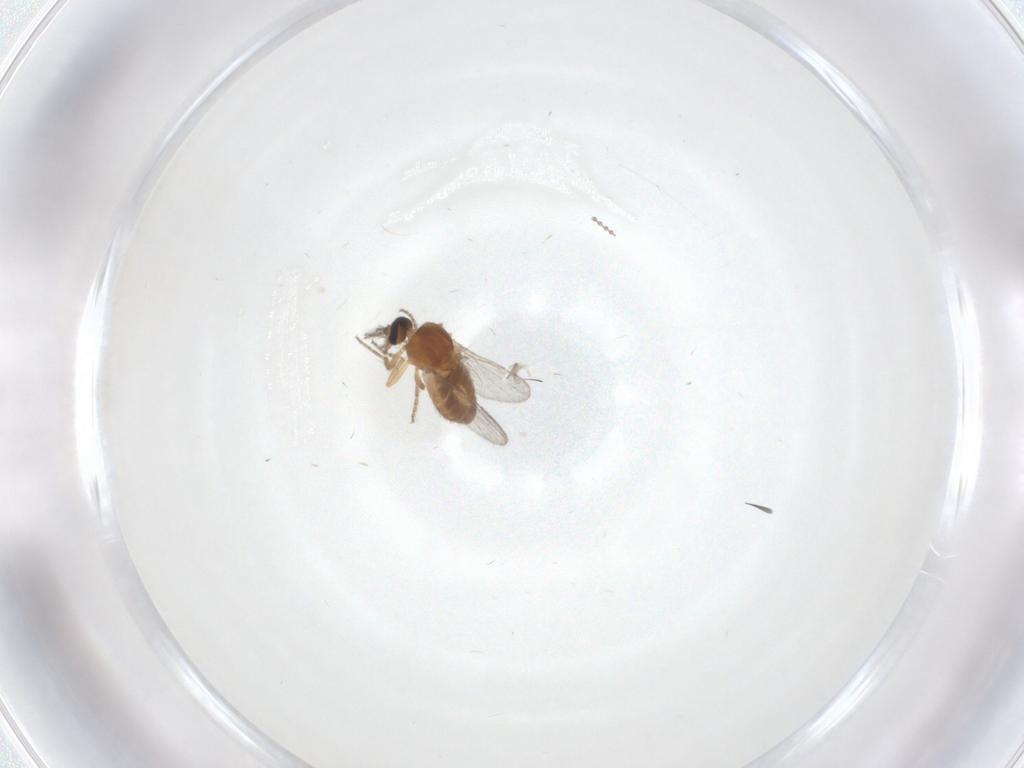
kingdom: Animalia
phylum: Arthropoda
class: Insecta
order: Diptera
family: Ceratopogonidae
